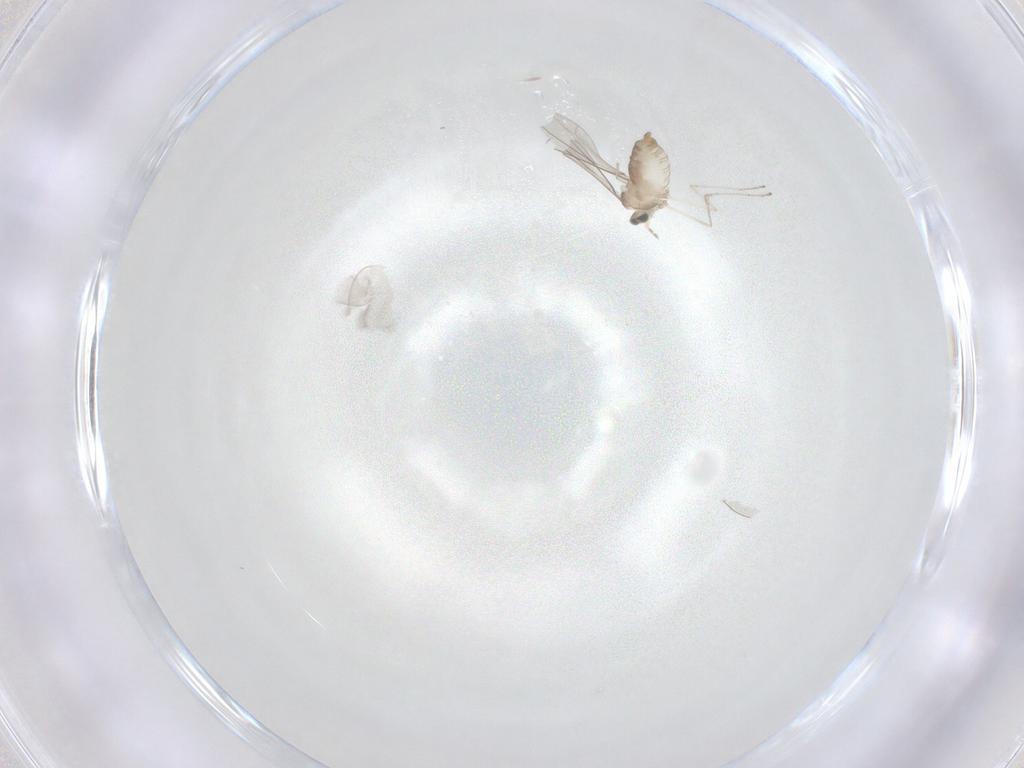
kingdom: Animalia
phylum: Arthropoda
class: Insecta
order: Diptera
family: Cecidomyiidae
